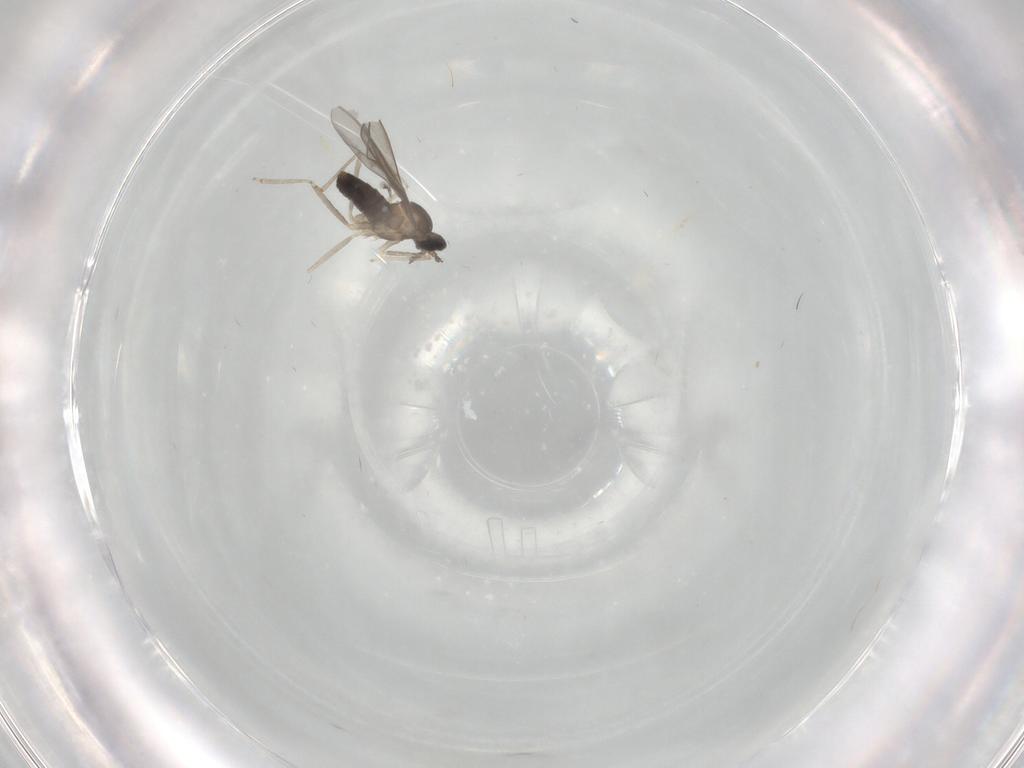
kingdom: Animalia
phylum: Arthropoda
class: Insecta
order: Diptera
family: Cecidomyiidae
